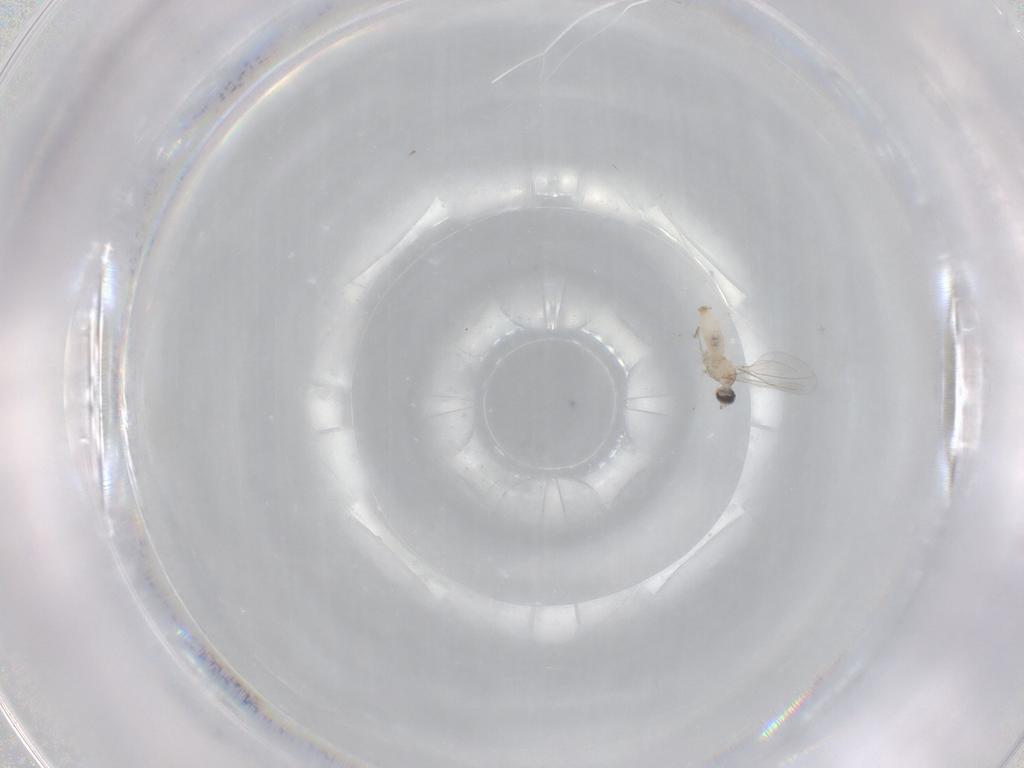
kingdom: Animalia
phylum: Arthropoda
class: Insecta
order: Diptera
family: Cecidomyiidae
